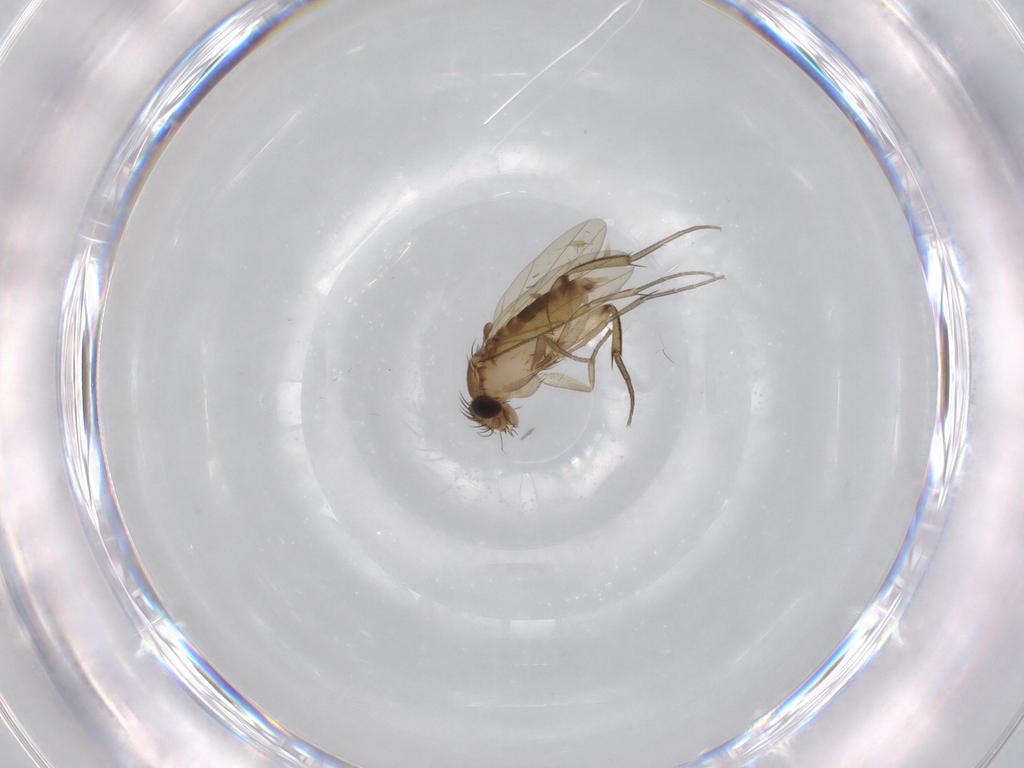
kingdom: Animalia
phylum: Arthropoda
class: Insecta
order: Diptera
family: Phoridae
